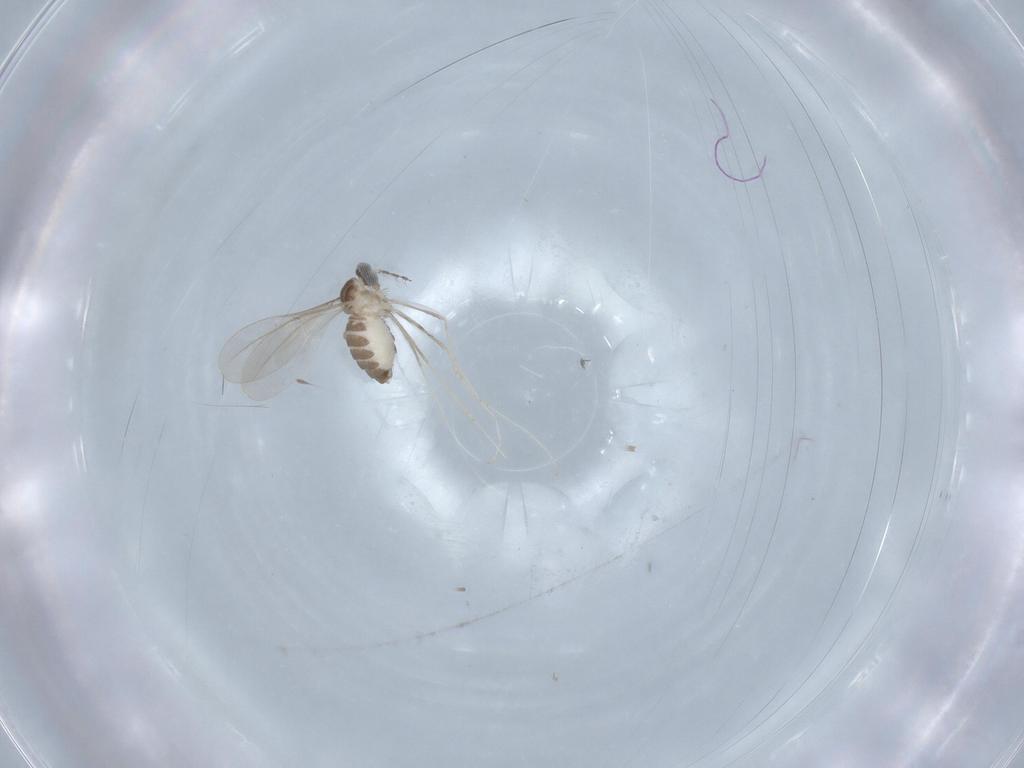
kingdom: Animalia
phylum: Arthropoda
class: Insecta
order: Diptera
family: Cecidomyiidae
